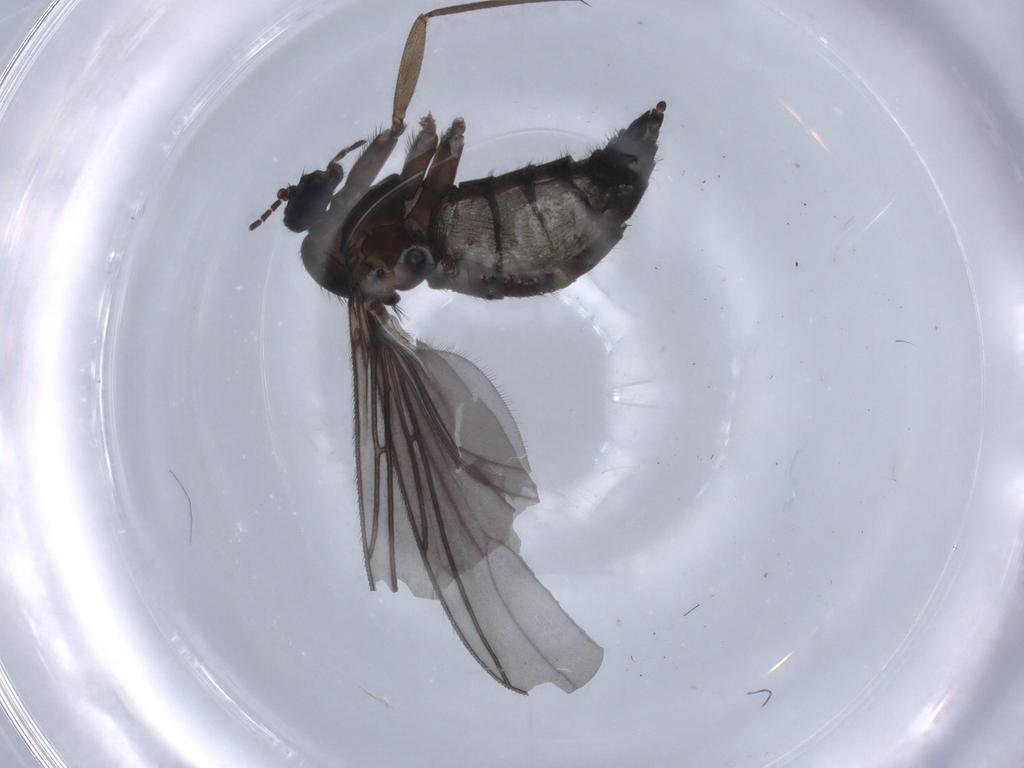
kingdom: Animalia
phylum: Arthropoda
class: Insecta
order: Diptera
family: Sciaridae
